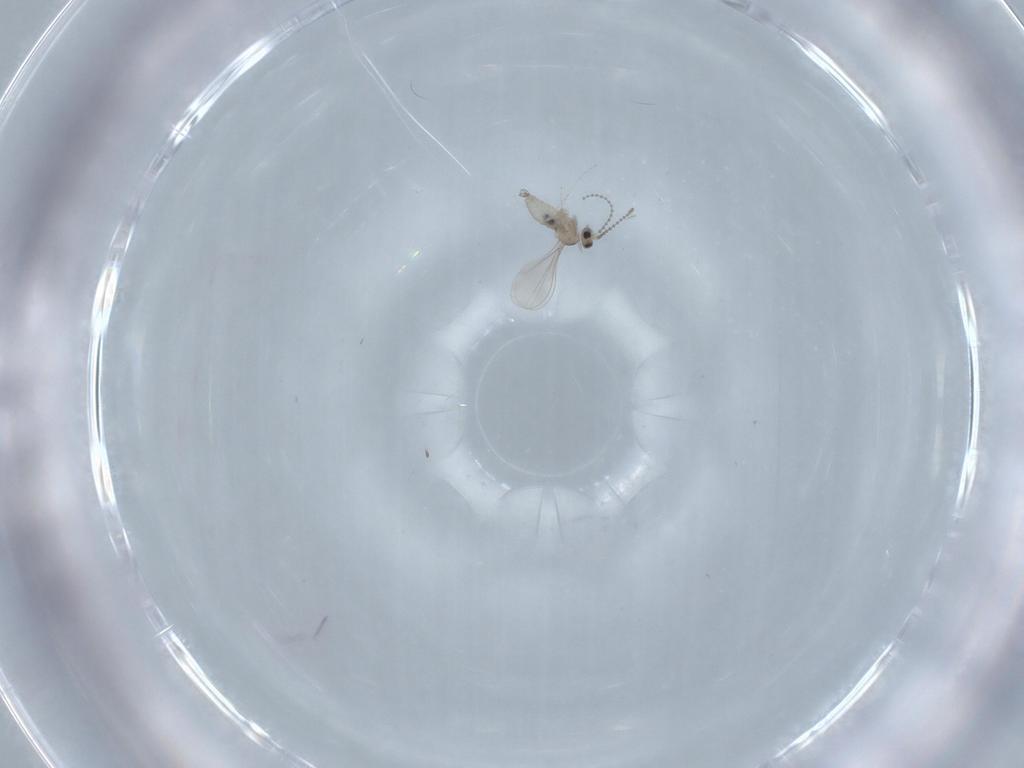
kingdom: Animalia
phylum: Arthropoda
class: Insecta
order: Diptera
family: Cecidomyiidae
